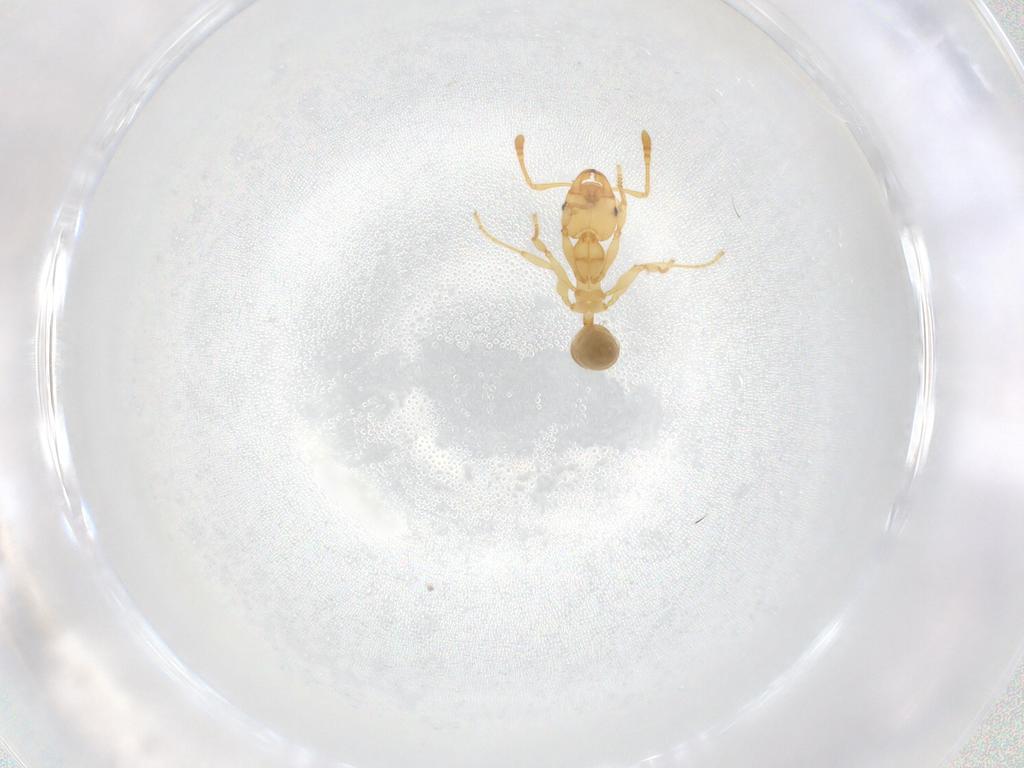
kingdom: Animalia
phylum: Arthropoda
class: Insecta
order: Hymenoptera
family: Formicidae
